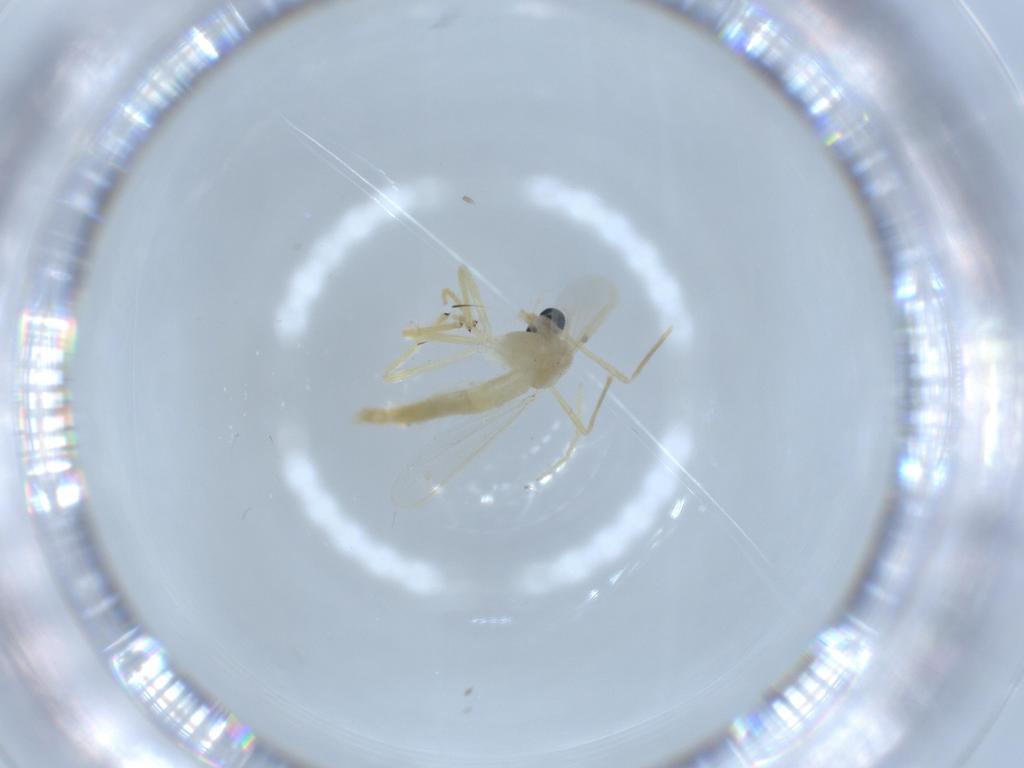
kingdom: Animalia
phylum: Arthropoda
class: Insecta
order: Diptera
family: Chironomidae
